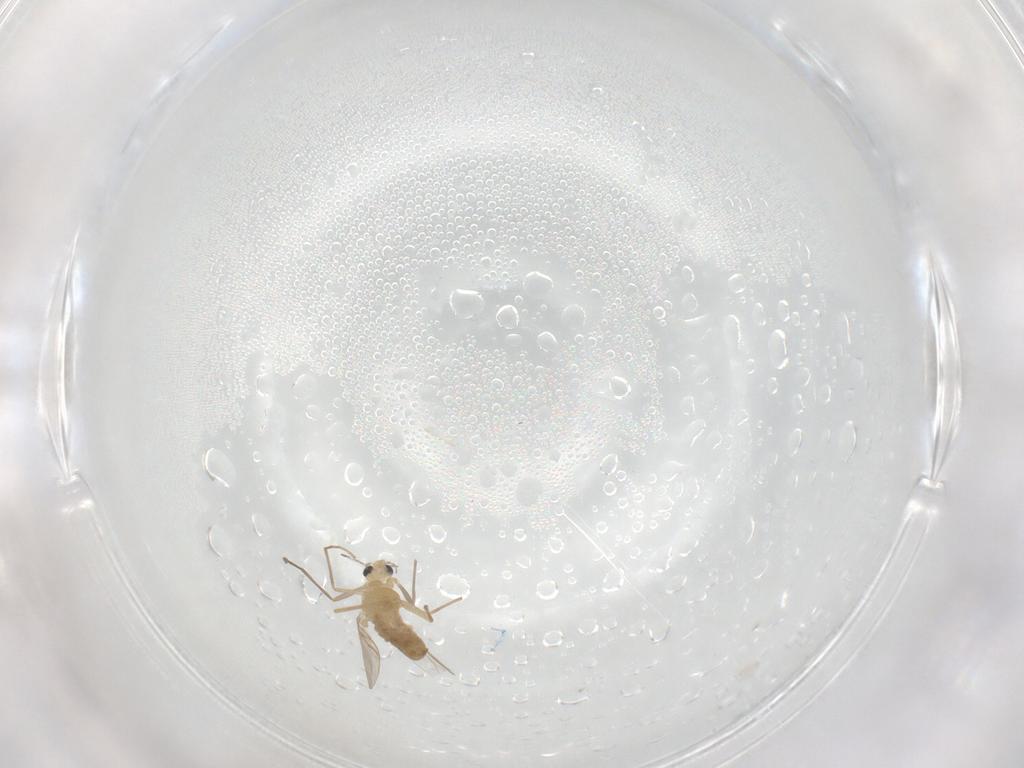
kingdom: Animalia
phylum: Arthropoda
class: Insecta
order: Diptera
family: Chironomidae
